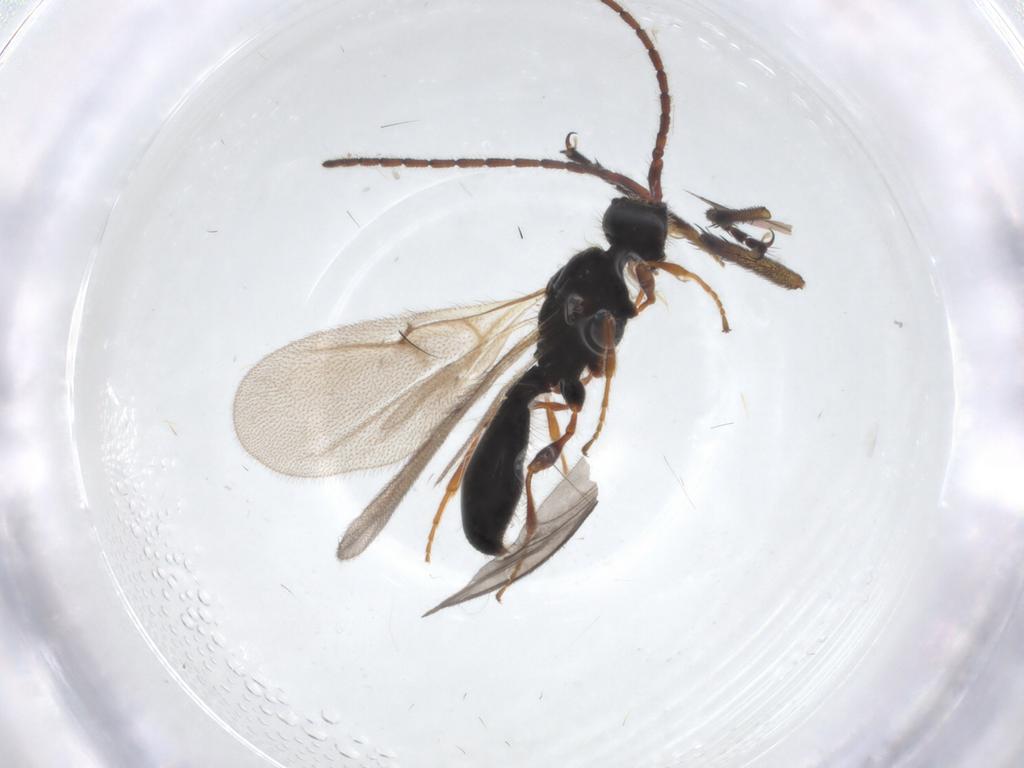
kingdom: Animalia
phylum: Arthropoda
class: Insecta
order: Hymenoptera
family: Diapriidae
